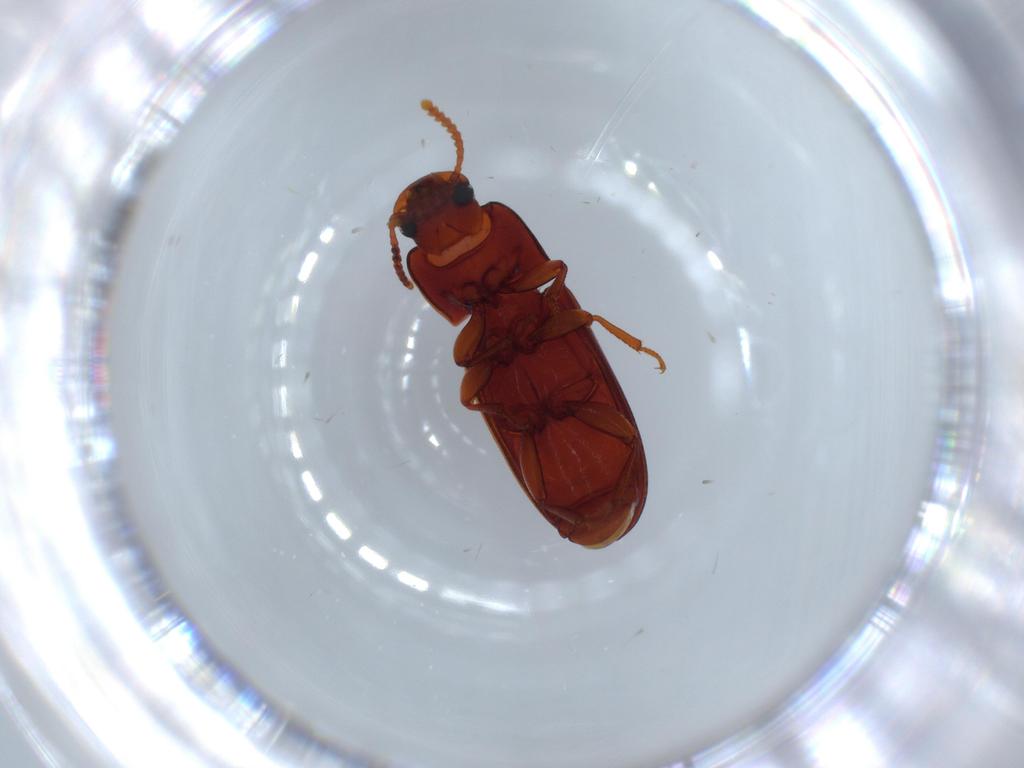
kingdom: Animalia
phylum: Arthropoda
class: Insecta
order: Coleoptera
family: Tenebrionidae
